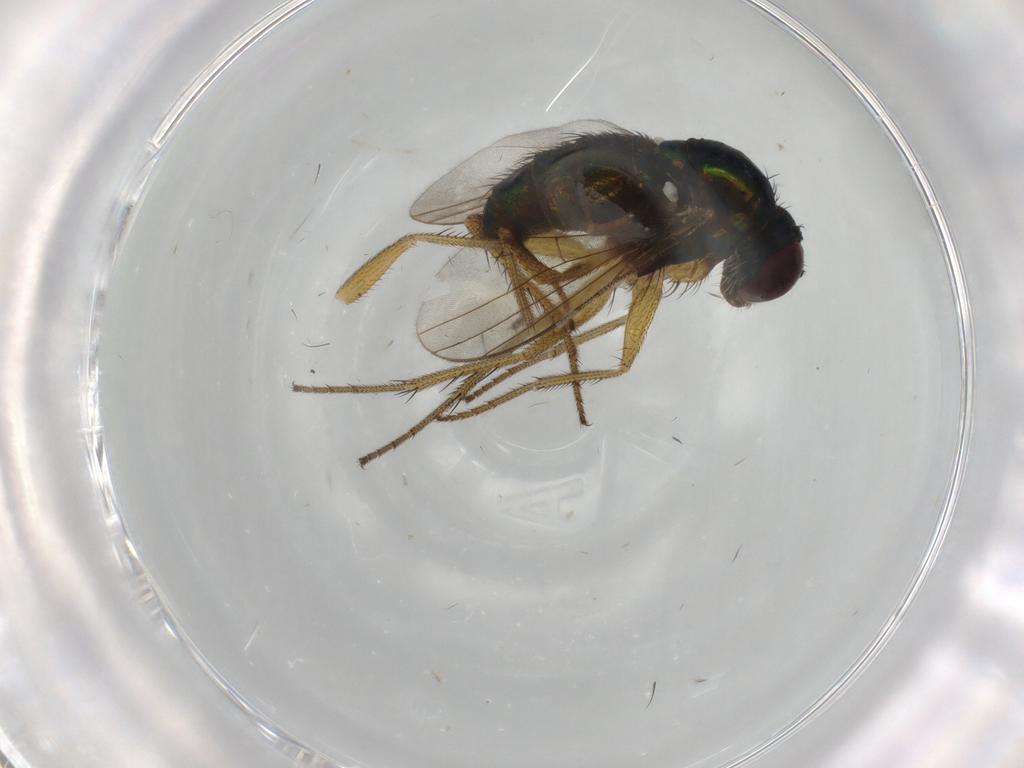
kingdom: Animalia
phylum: Arthropoda
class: Insecta
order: Diptera
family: Dolichopodidae
